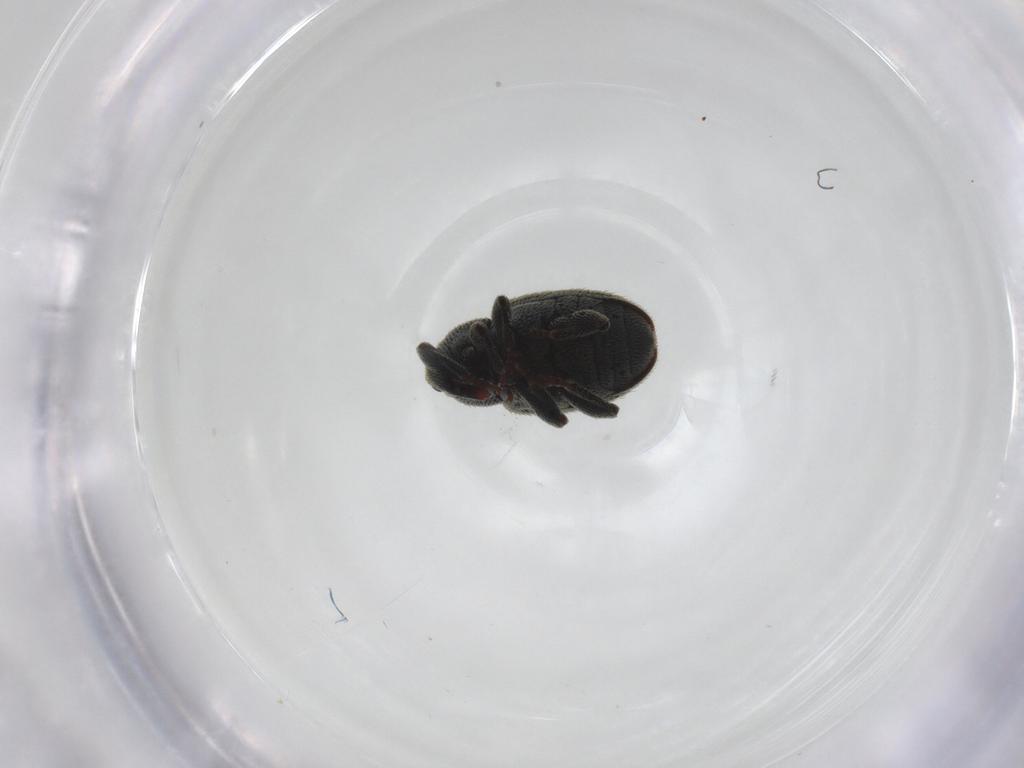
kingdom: Animalia
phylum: Arthropoda
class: Insecta
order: Coleoptera
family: Curculionidae
